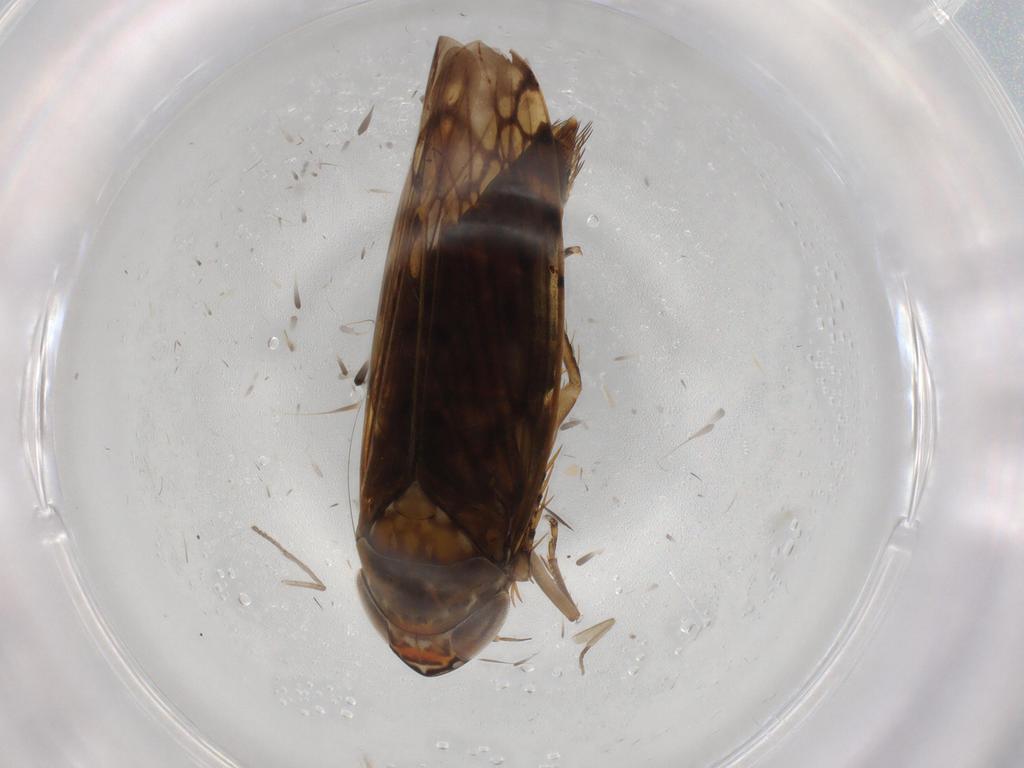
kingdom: Animalia
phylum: Arthropoda
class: Insecta
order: Hemiptera
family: Cicadellidae
